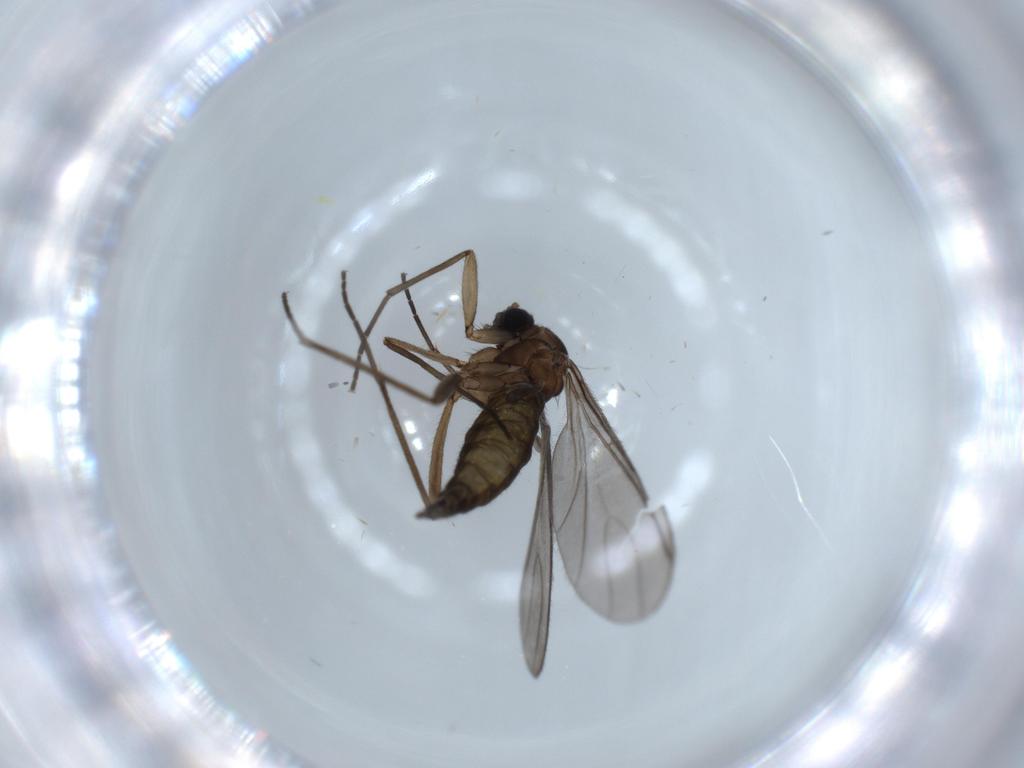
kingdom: Animalia
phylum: Arthropoda
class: Insecta
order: Diptera
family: Sciaridae
